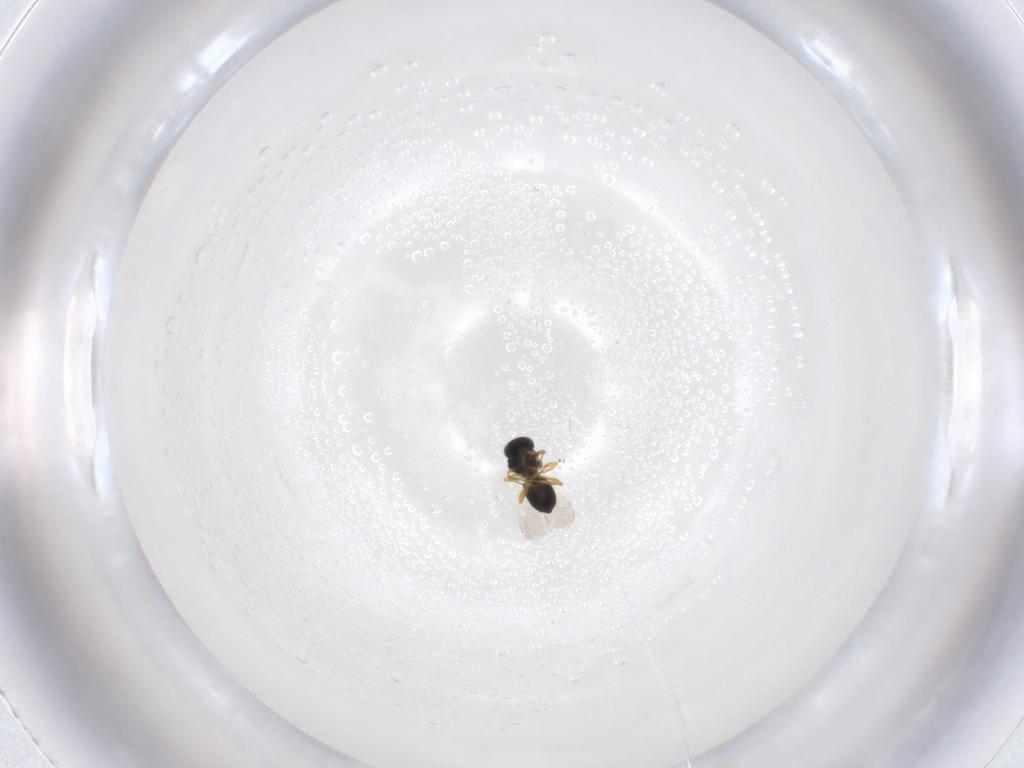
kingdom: Animalia
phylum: Arthropoda
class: Insecta
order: Hymenoptera
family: Platygastridae
